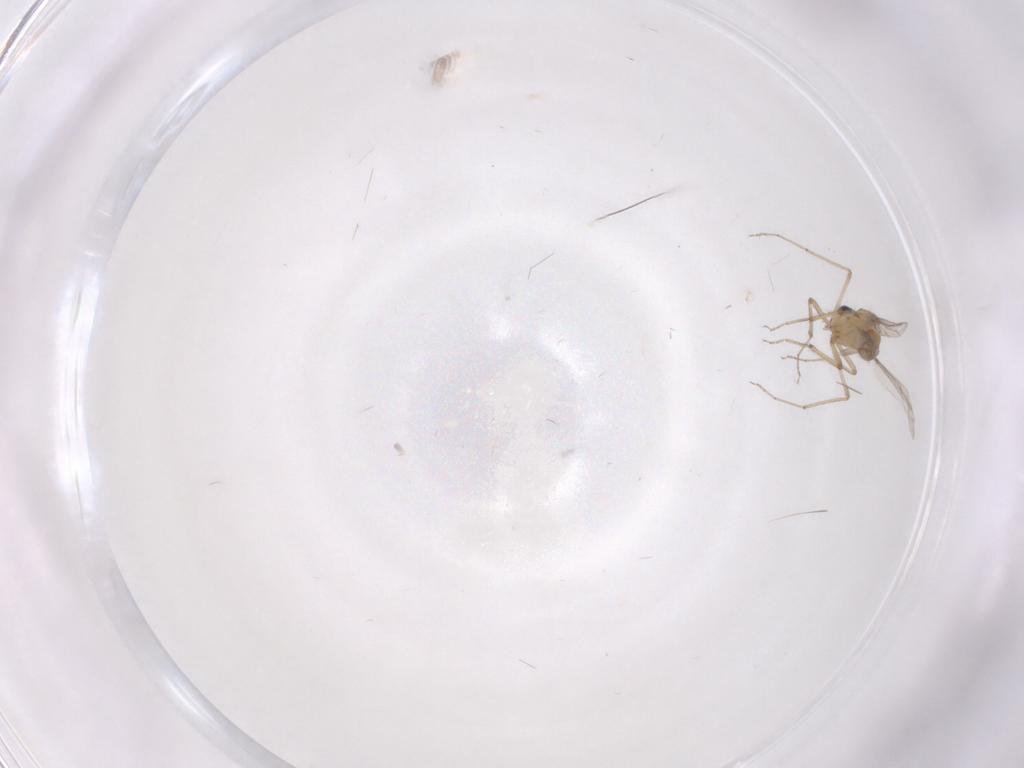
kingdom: Animalia
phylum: Arthropoda
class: Insecta
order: Diptera
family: Ceratopogonidae
